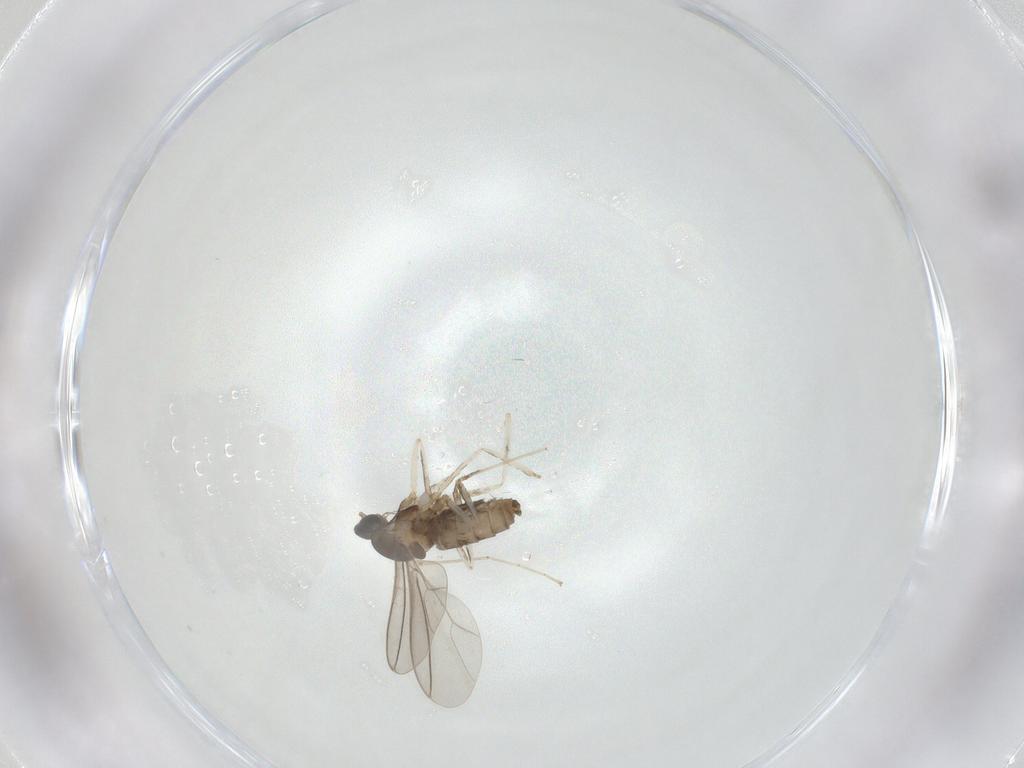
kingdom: Animalia
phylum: Arthropoda
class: Insecta
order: Diptera
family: Cecidomyiidae
